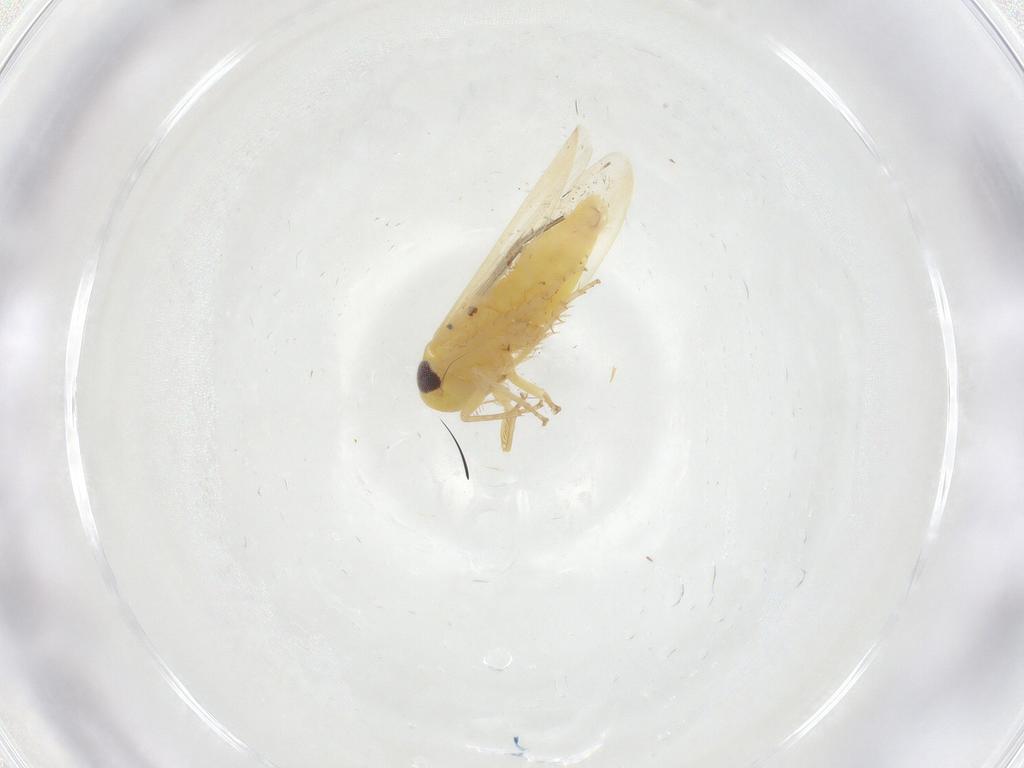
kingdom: Animalia
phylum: Arthropoda
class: Insecta
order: Hemiptera
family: Cicadellidae
